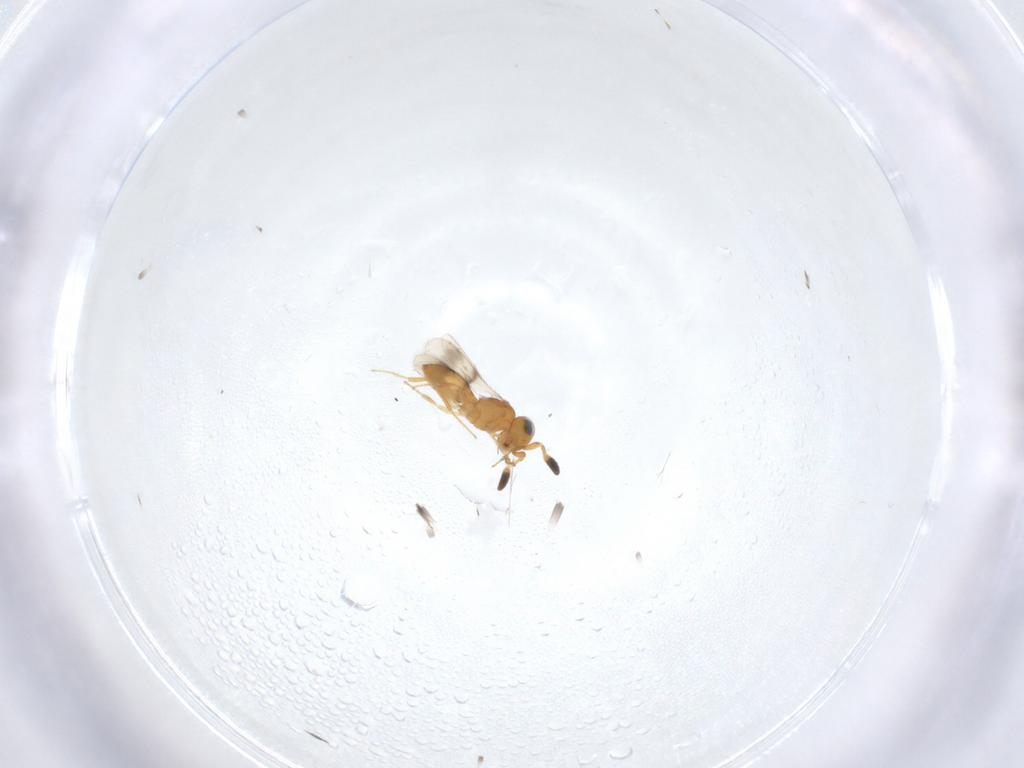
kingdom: Animalia
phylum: Arthropoda
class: Insecta
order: Hymenoptera
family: Scelionidae
